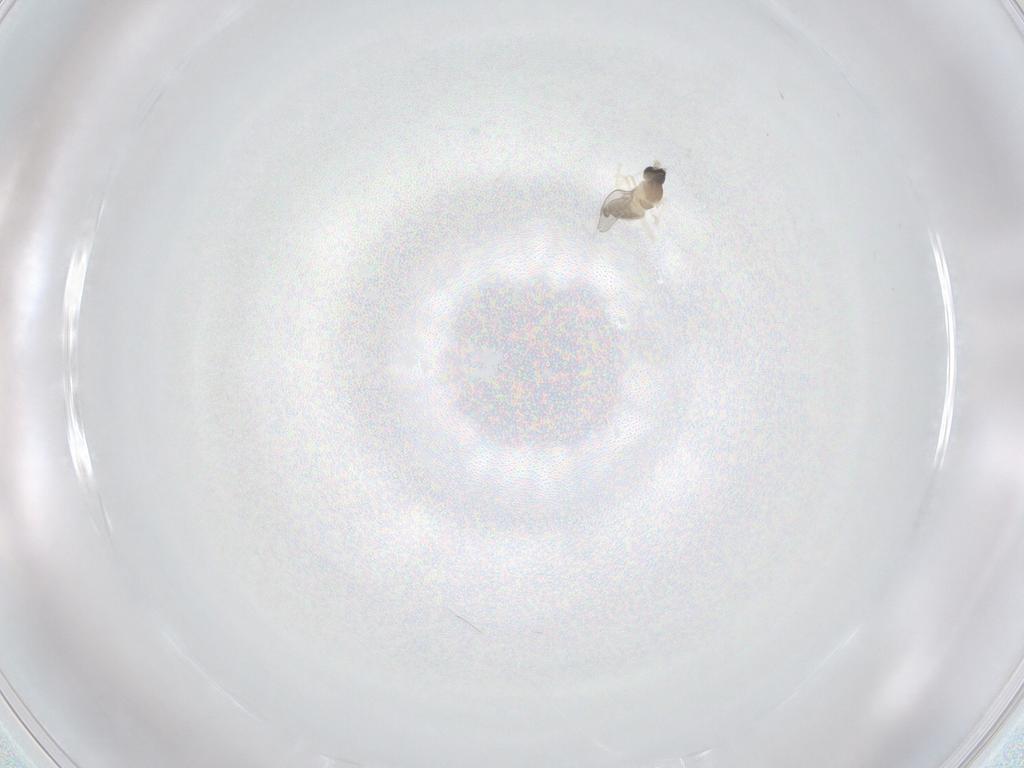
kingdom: Animalia
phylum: Arthropoda
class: Insecta
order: Diptera
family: Cecidomyiidae
